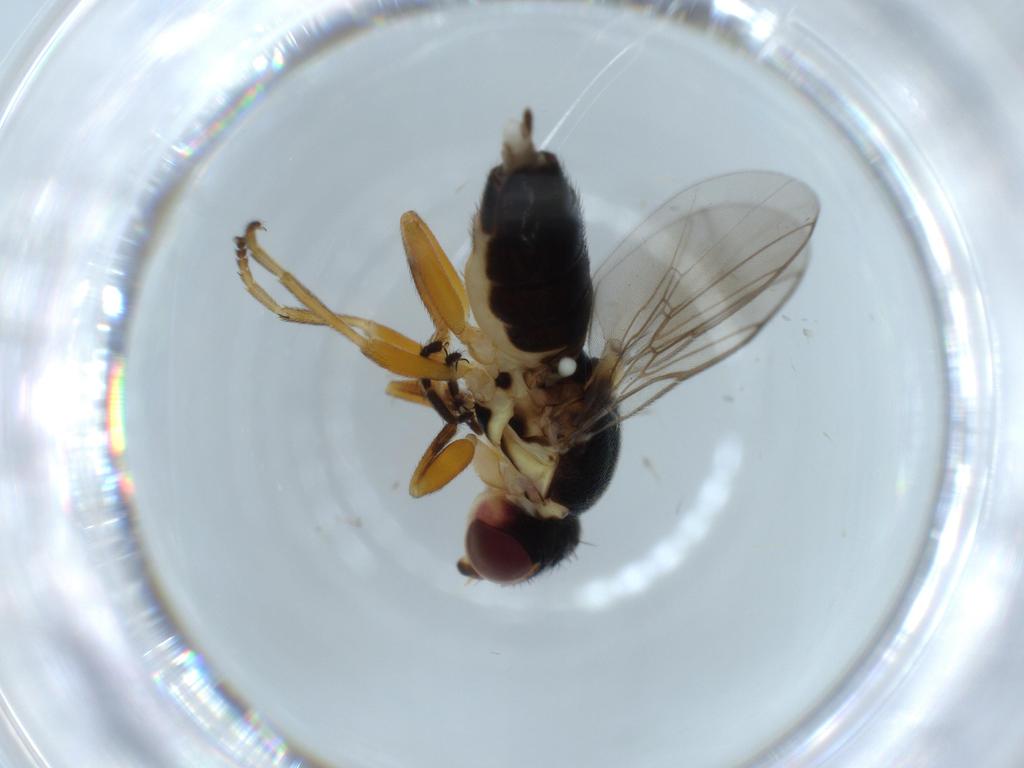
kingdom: Animalia
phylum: Arthropoda
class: Insecta
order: Diptera
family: Chloropidae
